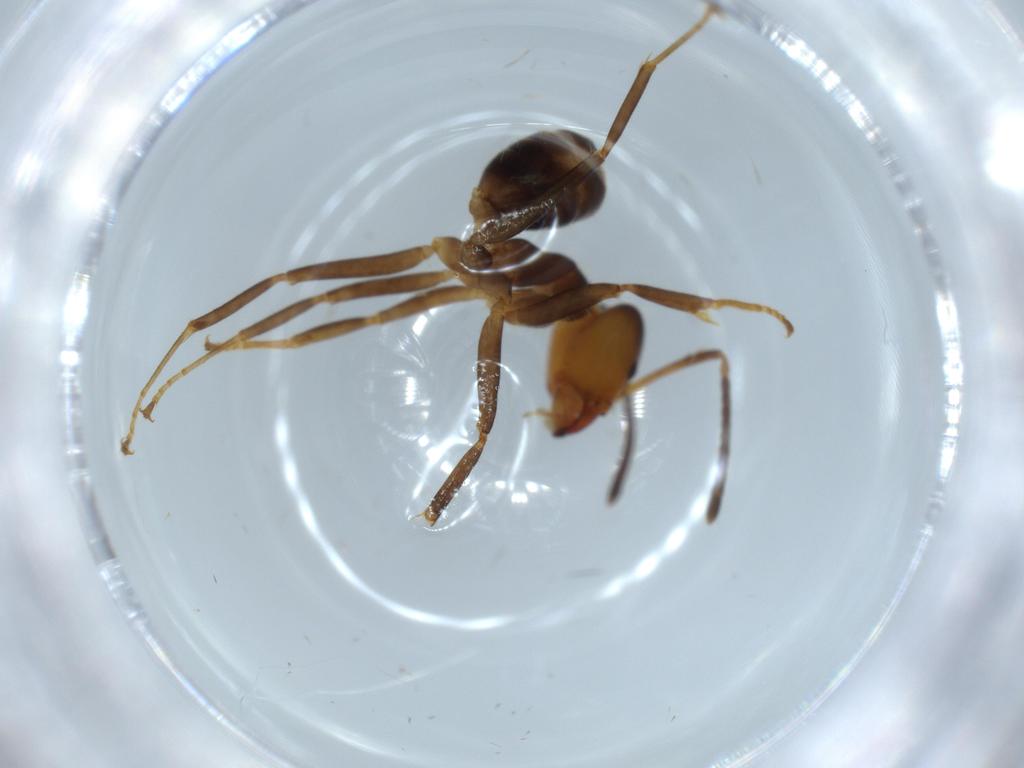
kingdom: Animalia
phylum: Arthropoda
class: Insecta
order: Hymenoptera
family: Formicidae
